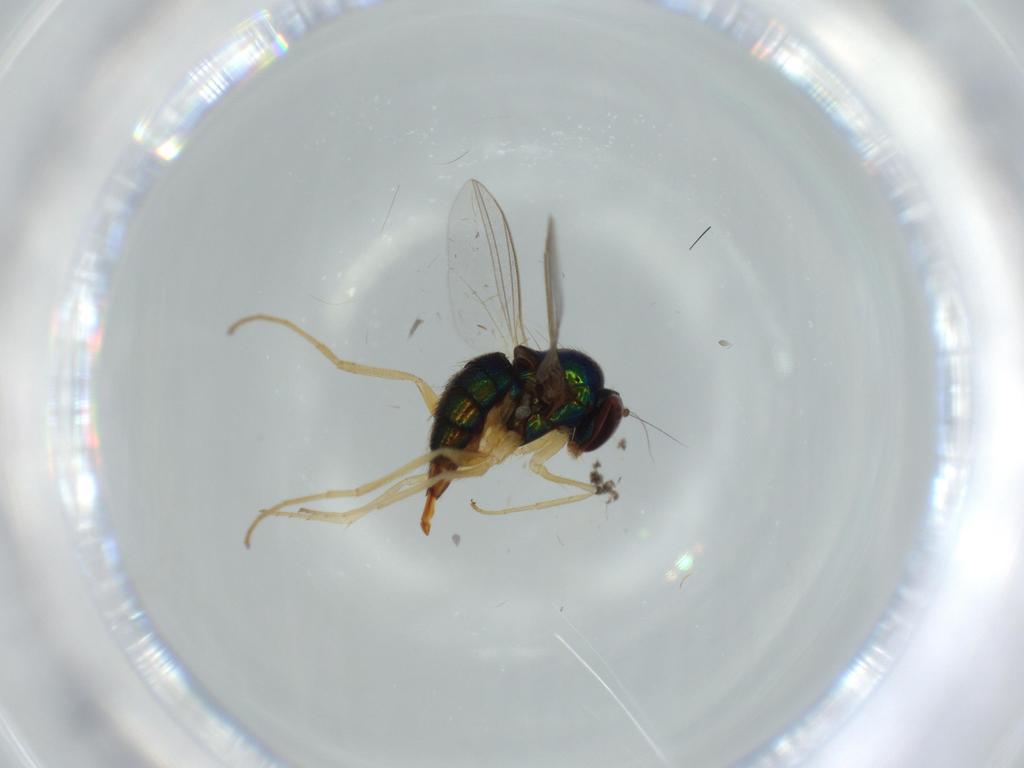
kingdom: Animalia
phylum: Arthropoda
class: Insecta
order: Diptera
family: Dolichopodidae
